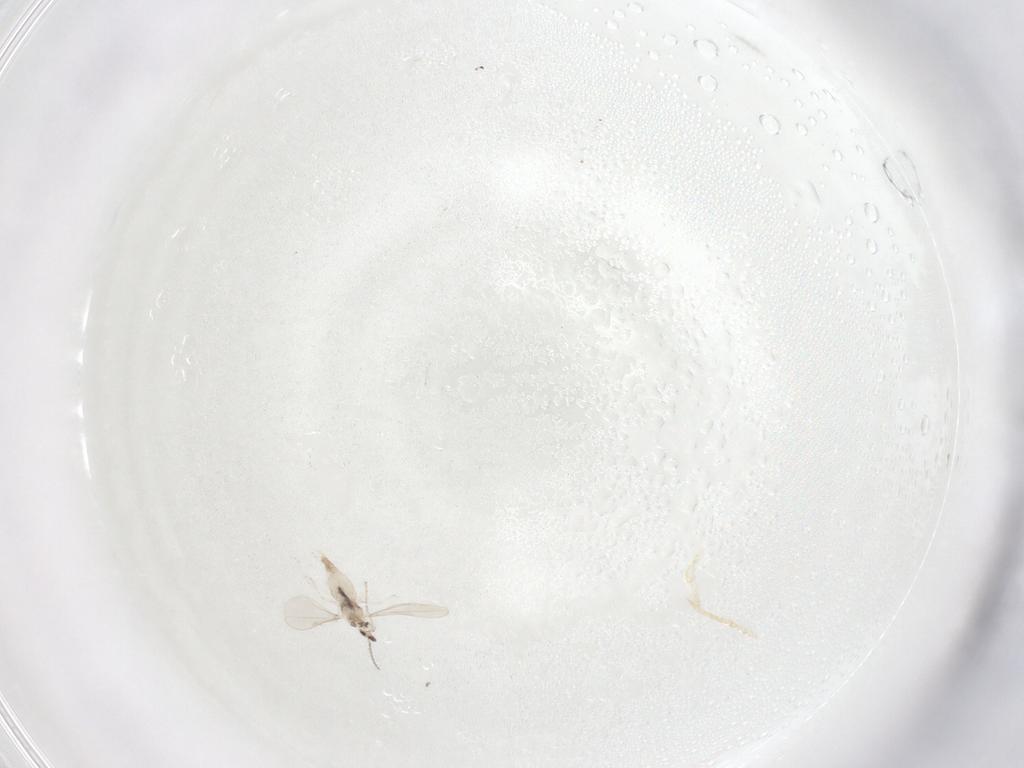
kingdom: Animalia
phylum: Arthropoda
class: Insecta
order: Diptera
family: Cecidomyiidae
